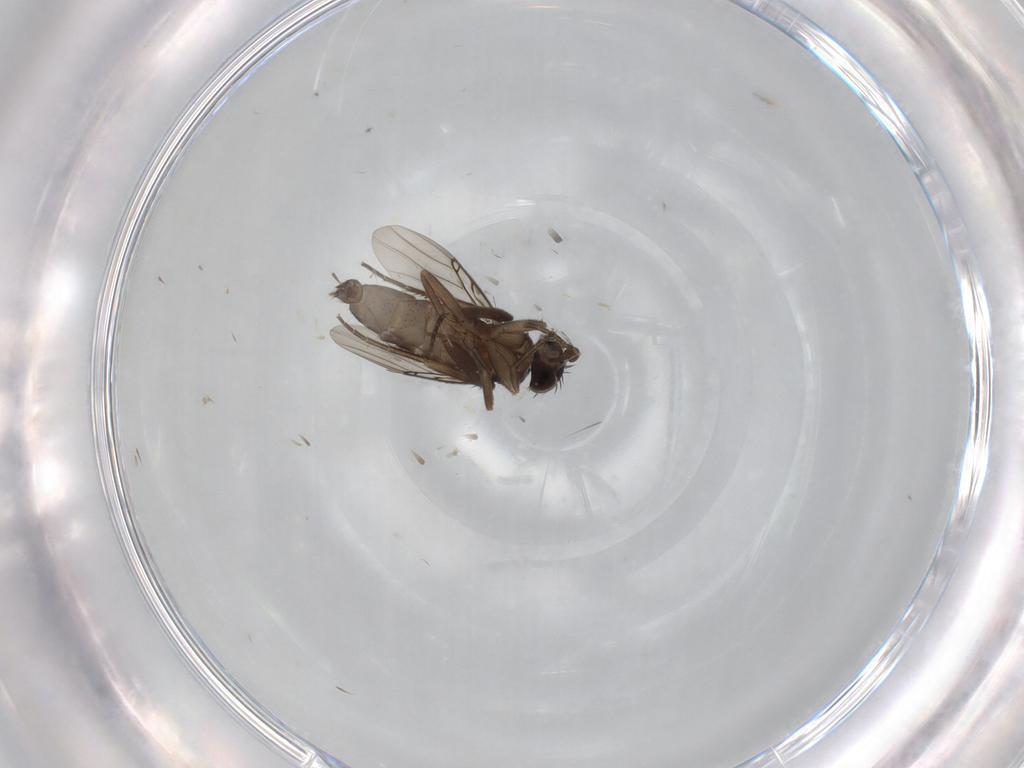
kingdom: Animalia
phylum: Arthropoda
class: Insecta
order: Diptera
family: Phoridae
